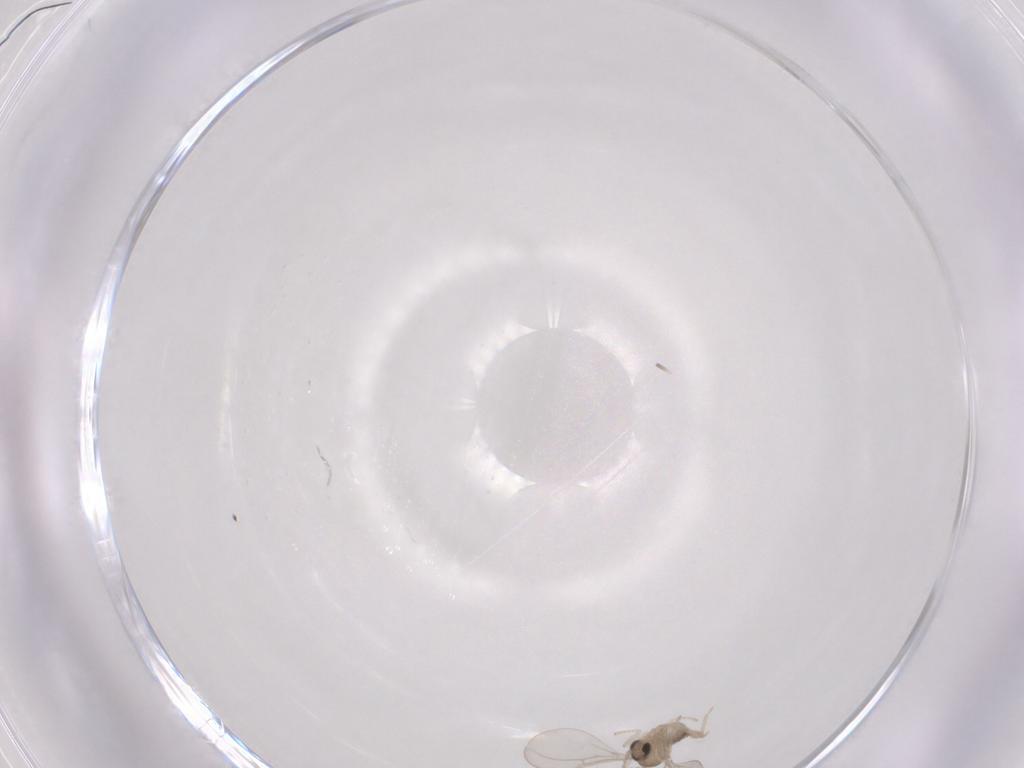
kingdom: Animalia
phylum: Arthropoda
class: Insecta
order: Diptera
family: Cecidomyiidae
